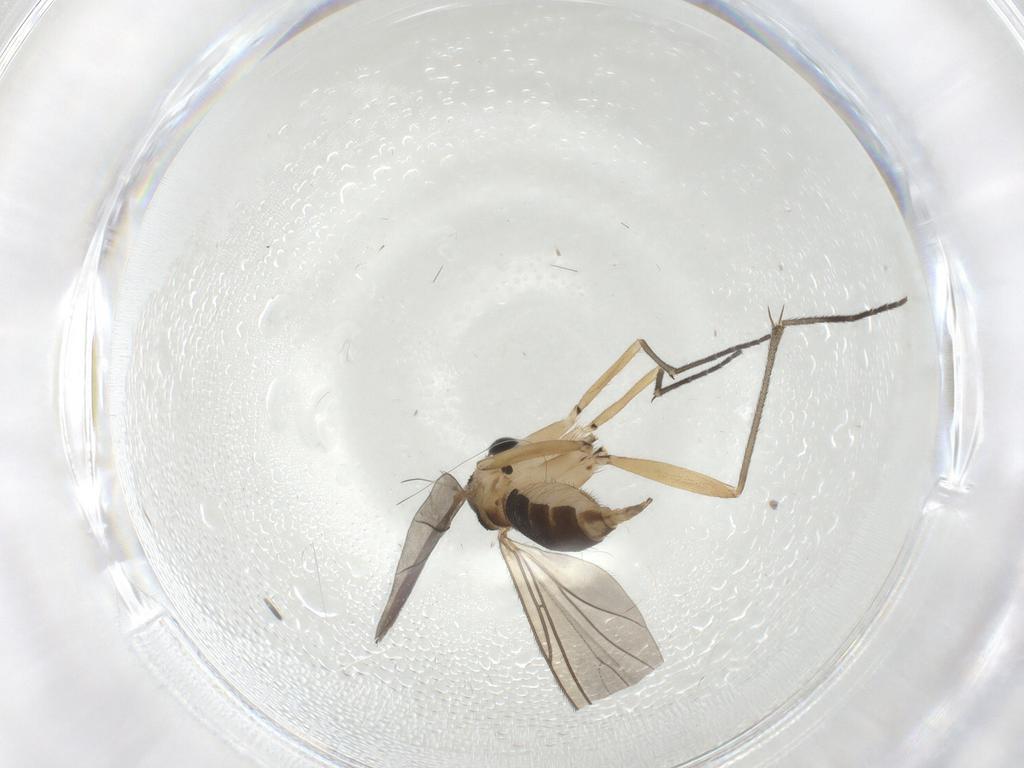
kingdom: Animalia
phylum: Arthropoda
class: Insecta
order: Diptera
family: Sciaridae
